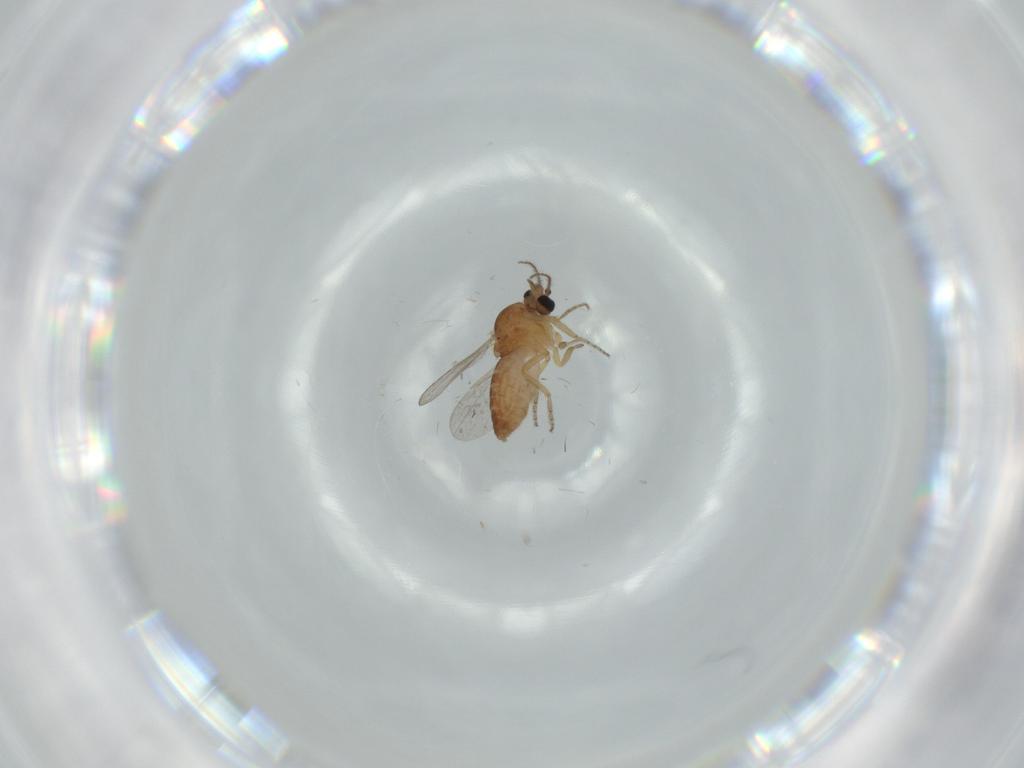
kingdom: Animalia
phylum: Arthropoda
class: Insecta
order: Diptera
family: Ceratopogonidae
